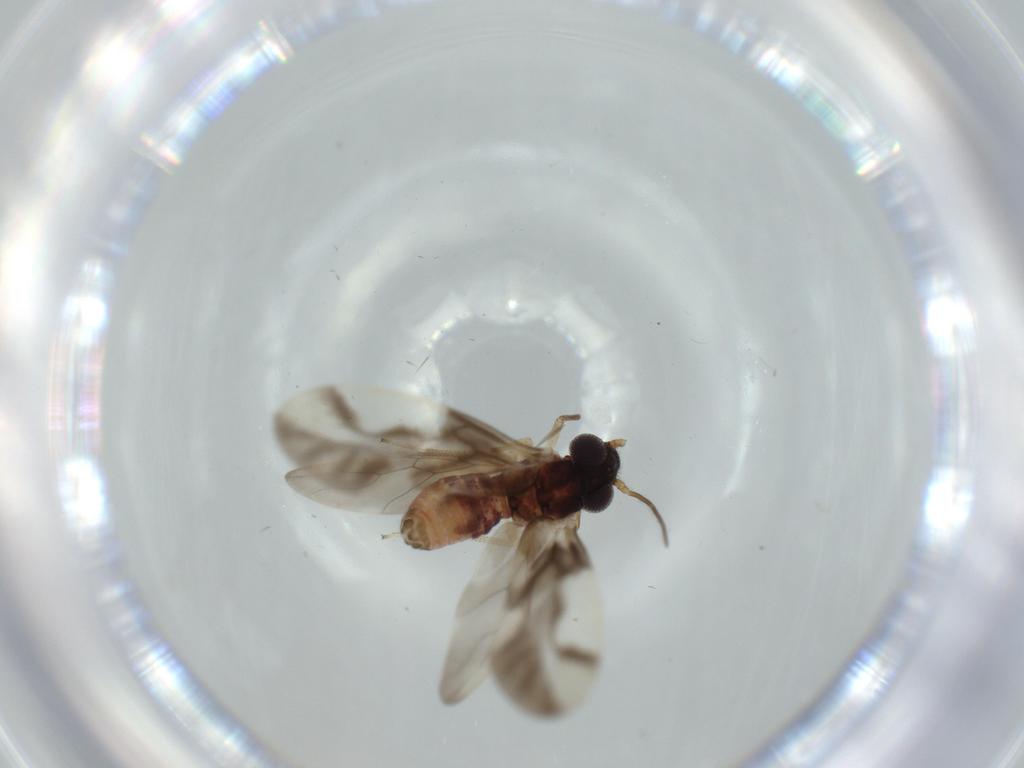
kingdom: Animalia
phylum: Arthropoda
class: Insecta
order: Psocodea
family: Caeciliusidae
